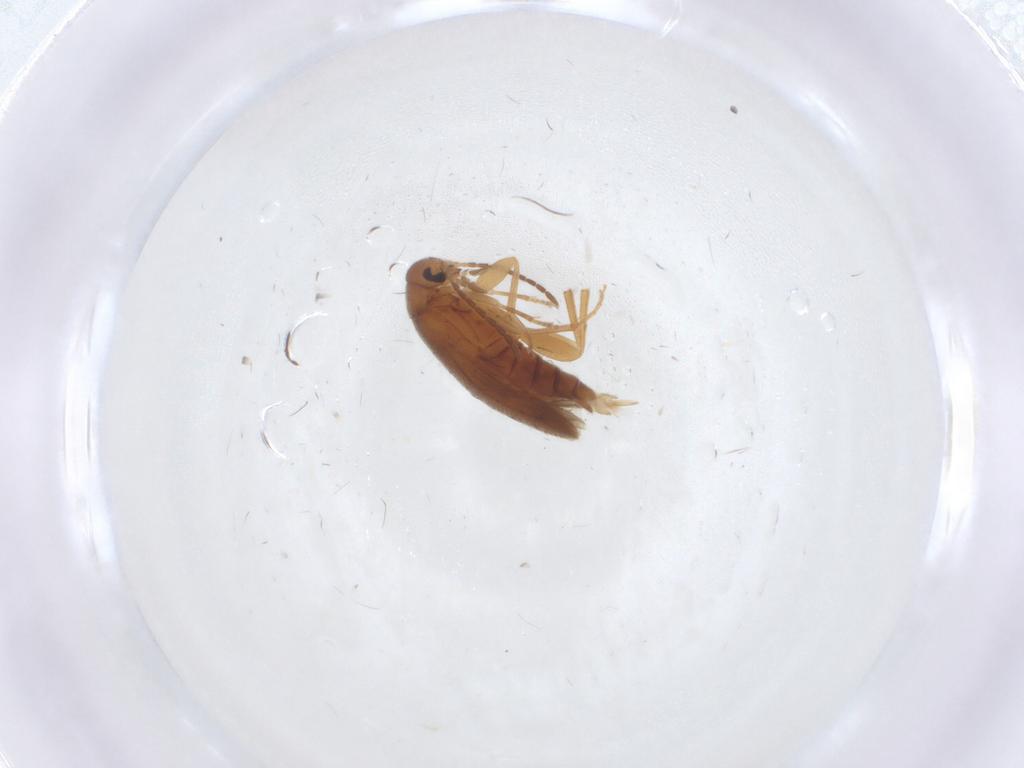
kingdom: Animalia
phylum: Arthropoda
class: Insecta
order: Coleoptera
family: Scraptiidae
